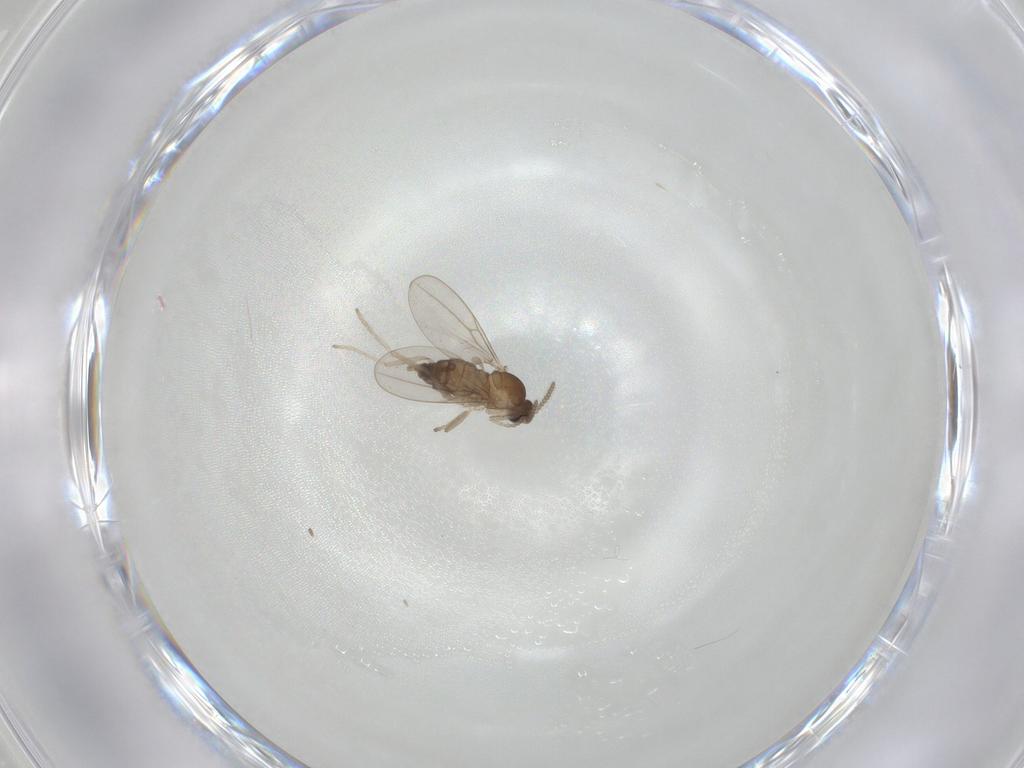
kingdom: Animalia
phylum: Arthropoda
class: Insecta
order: Diptera
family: Cecidomyiidae
